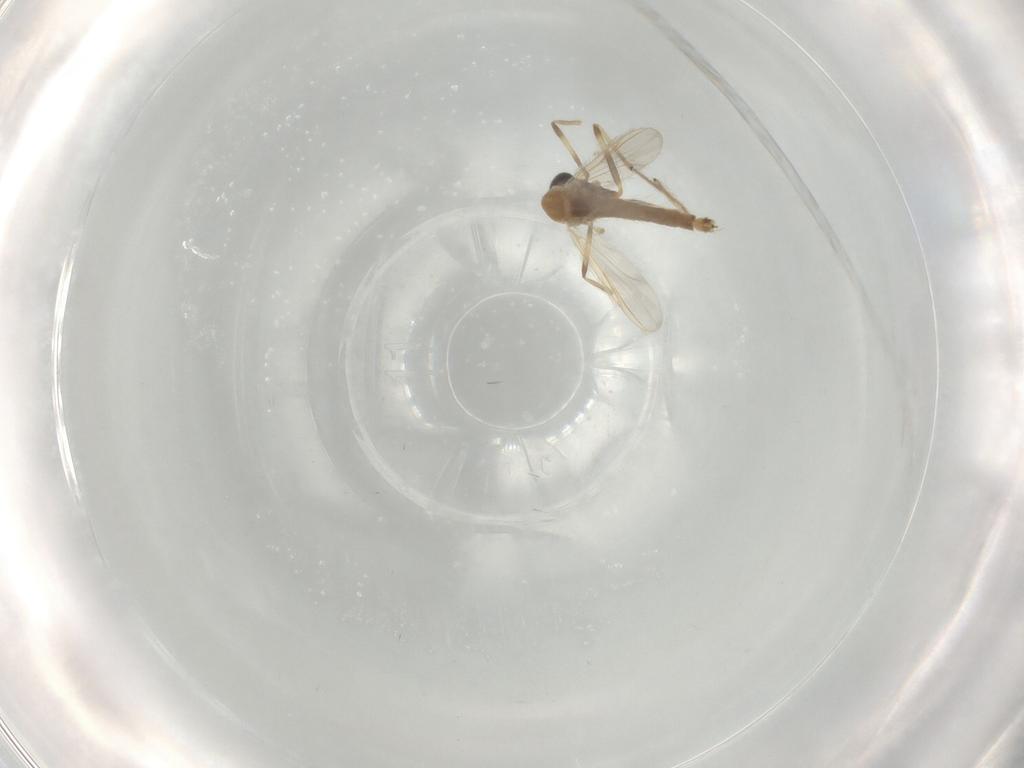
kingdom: Animalia
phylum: Arthropoda
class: Insecta
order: Diptera
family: Chironomidae
